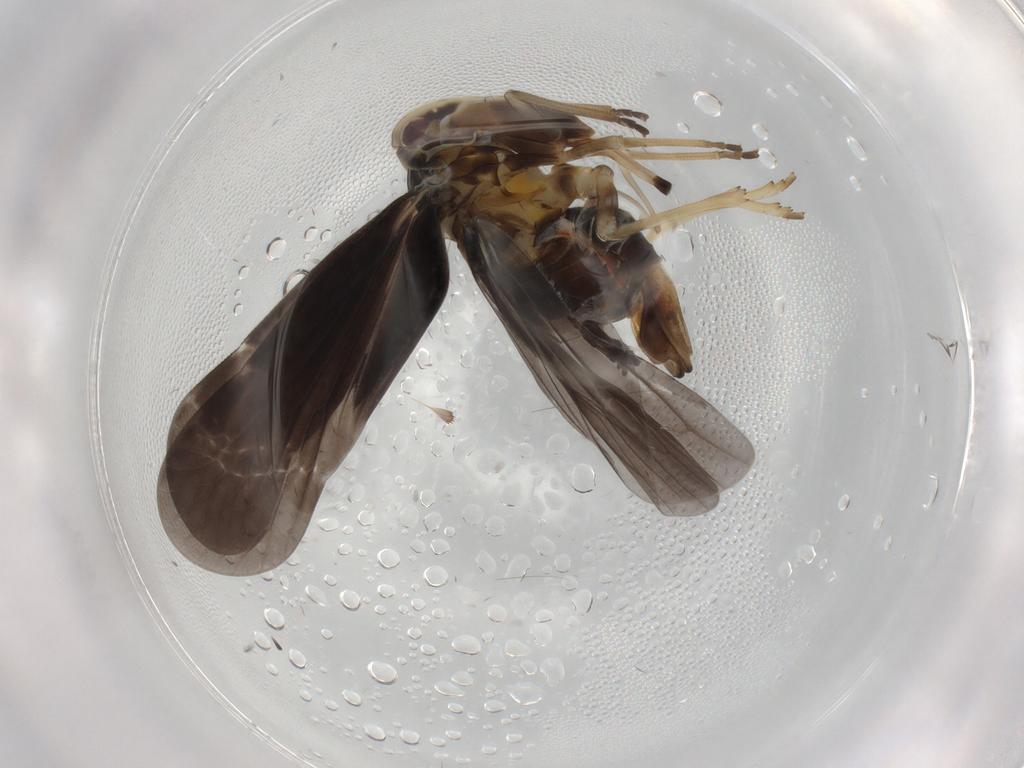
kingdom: Animalia
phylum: Arthropoda
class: Insecta
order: Hemiptera
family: Derbidae
